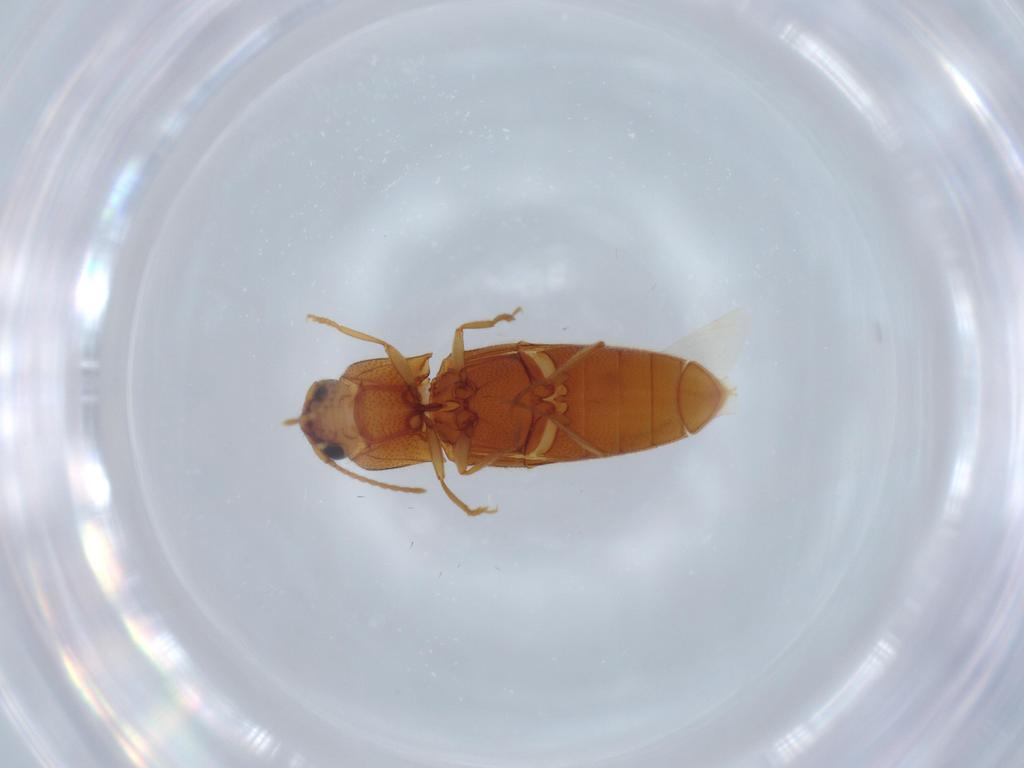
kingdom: Animalia
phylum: Arthropoda
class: Insecta
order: Coleoptera
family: Elateridae
